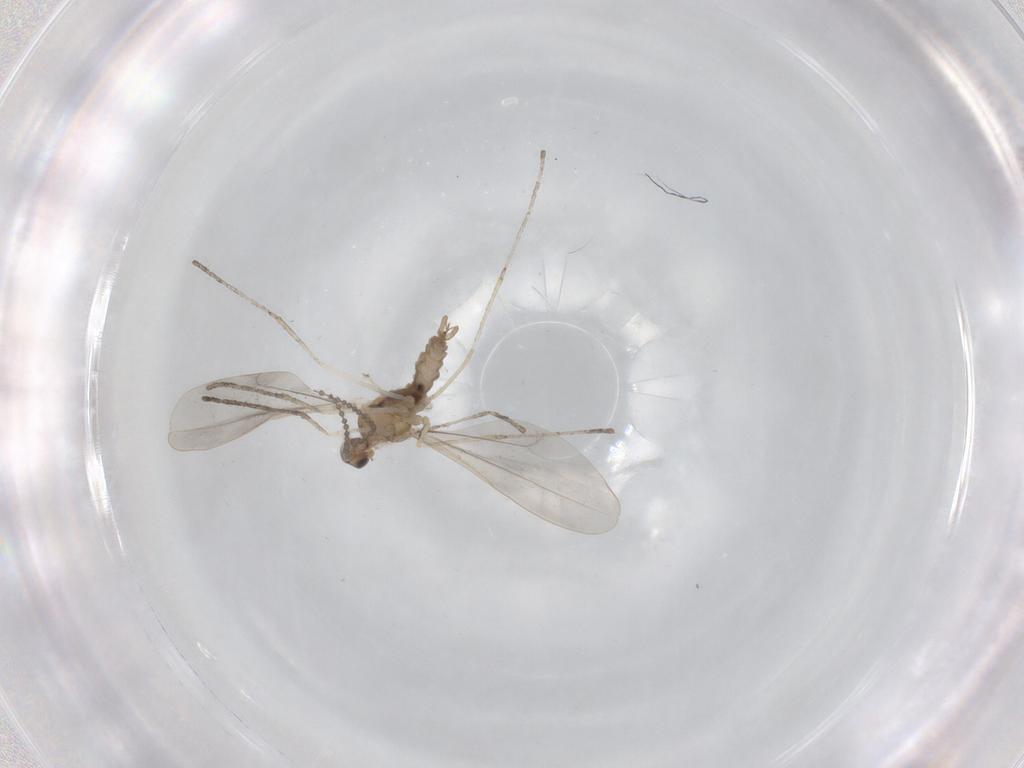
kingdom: Animalia
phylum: Arthropoda
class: Insecta
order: Diptera
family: Cecidomyiidae
